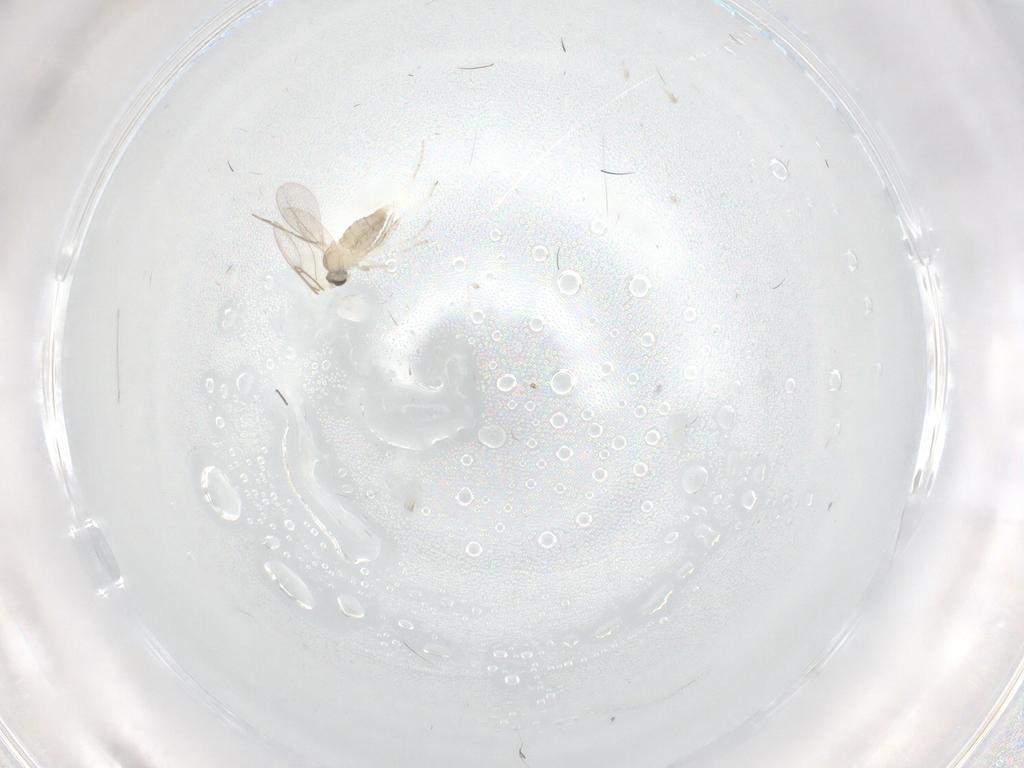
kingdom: Animalia
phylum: Arthropoda
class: Insecta
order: Diptera
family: Cecidomyiidae
